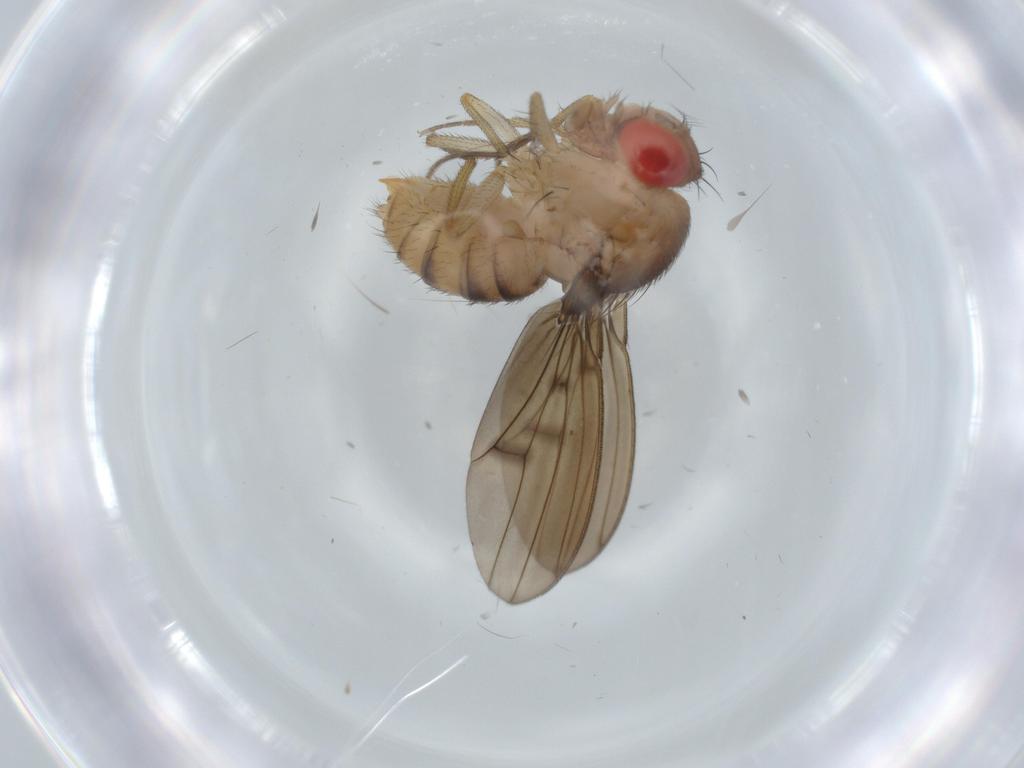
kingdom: Animalia
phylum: Arthropoda
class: Insecta
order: Diptera
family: Drosophilidae
